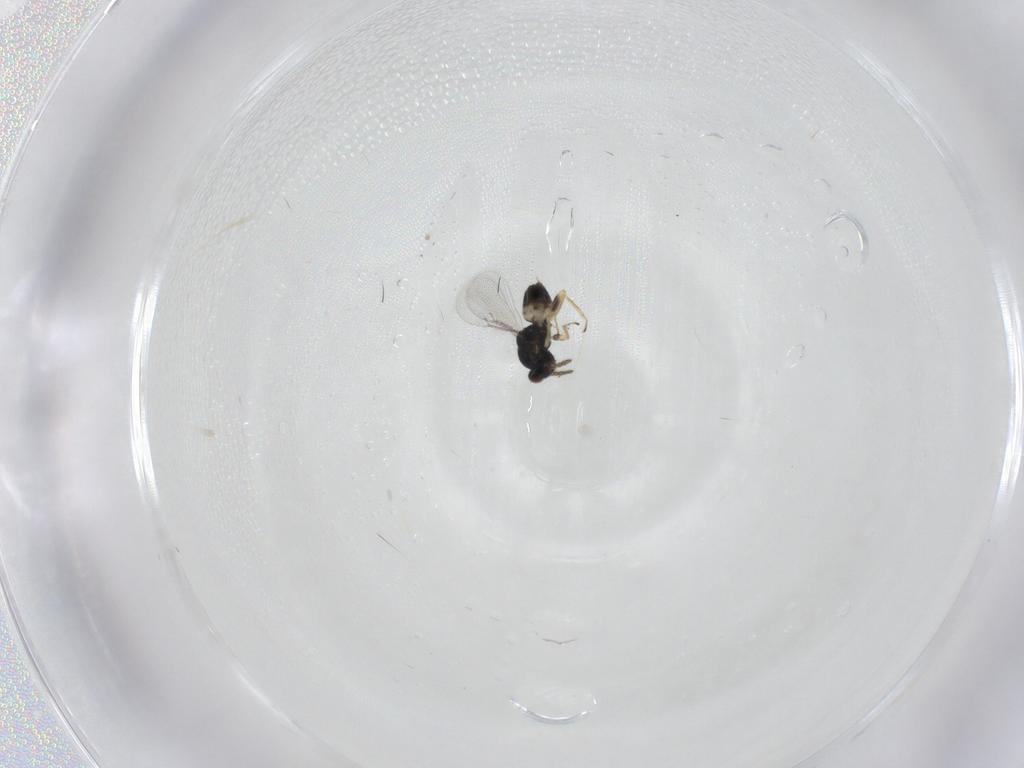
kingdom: Animalia
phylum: Arthropoda
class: Insecta
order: Hymenoptera
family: Eulophidae
